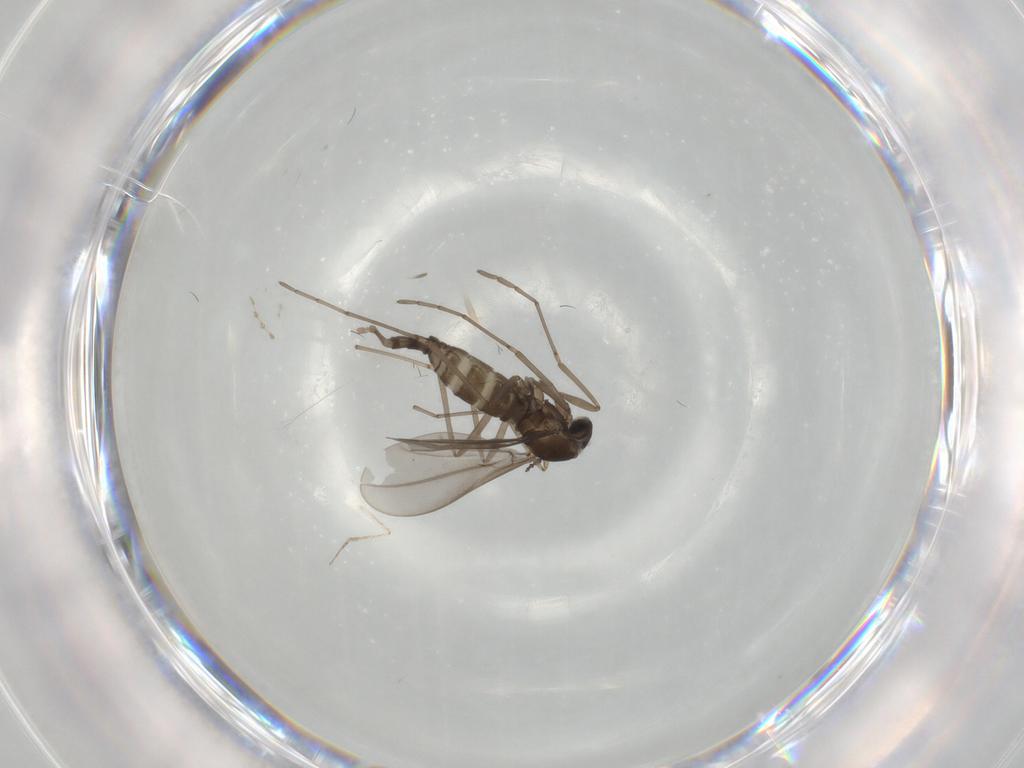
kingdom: Animalia
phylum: Arthropoda
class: Insecta
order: Diptera
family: Cecidomyiidae
